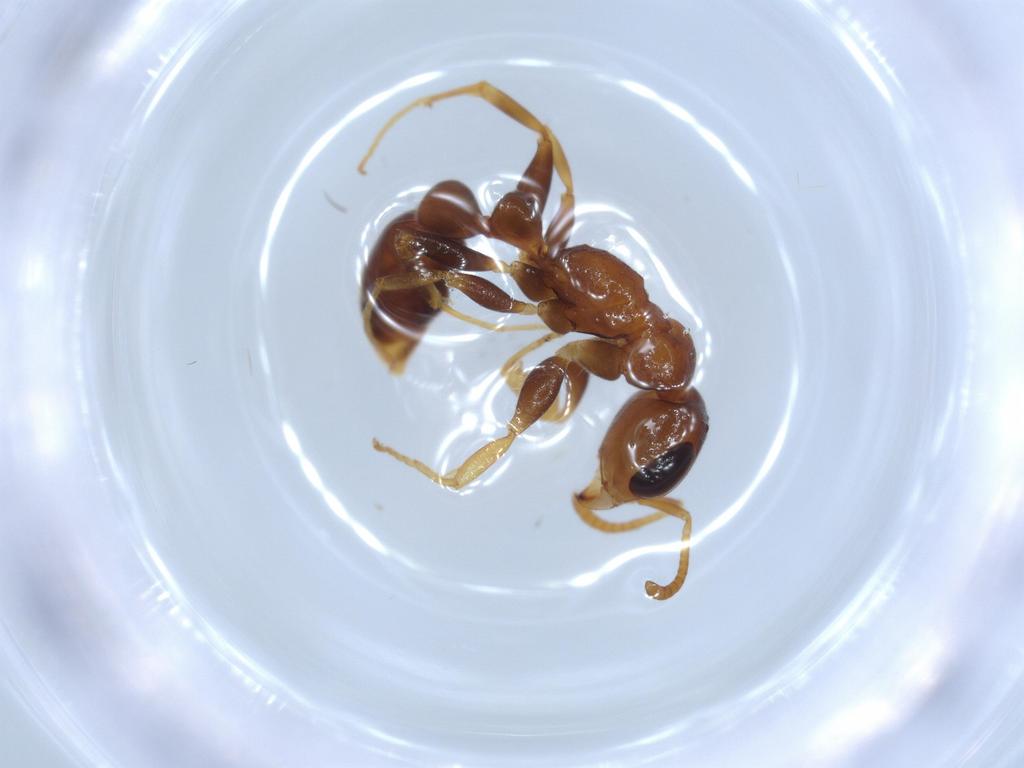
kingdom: Animalia
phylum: Arthropoda
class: Insecta
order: Hymenoptera
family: Formicidae
